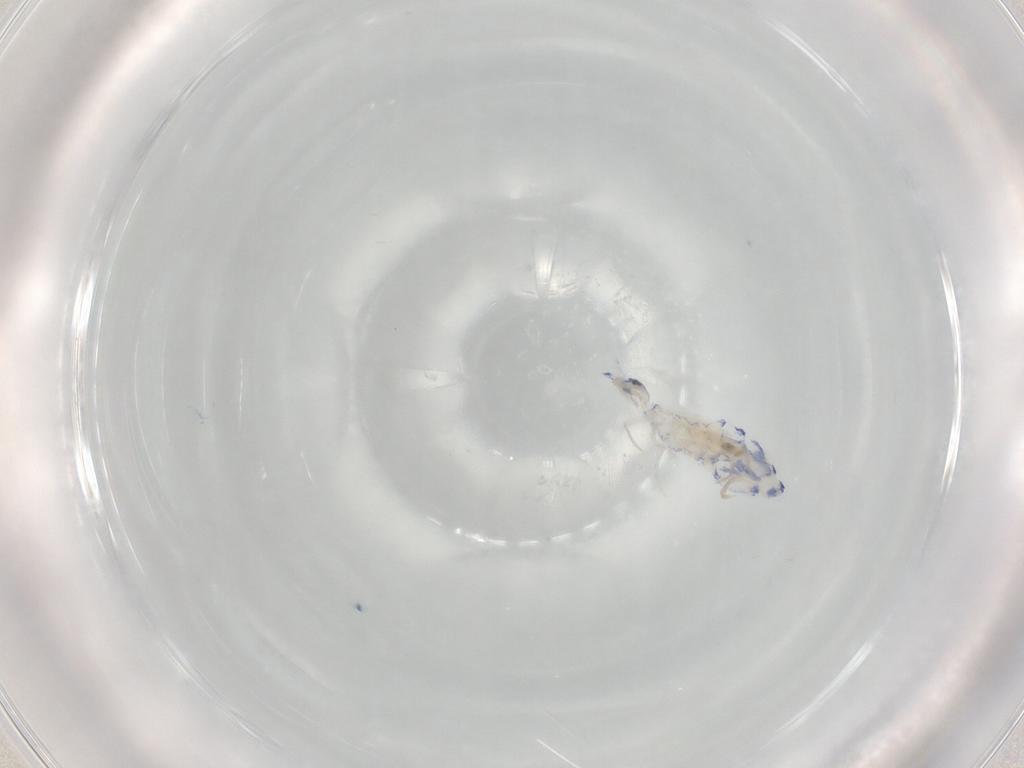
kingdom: Animalia
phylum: Arthropoda
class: Collembola
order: Entomobryomorpha
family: Entomobryidae
